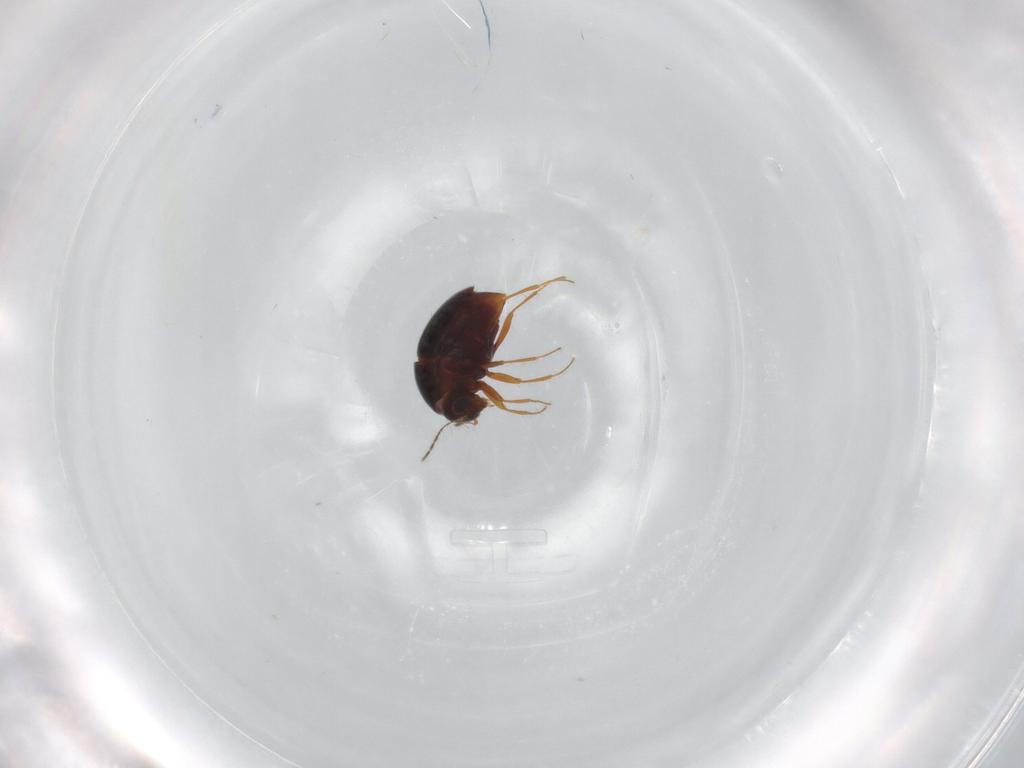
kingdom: Animalia
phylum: Arthropoda
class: Insecta
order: Coleoptera
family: Staphylinidae
